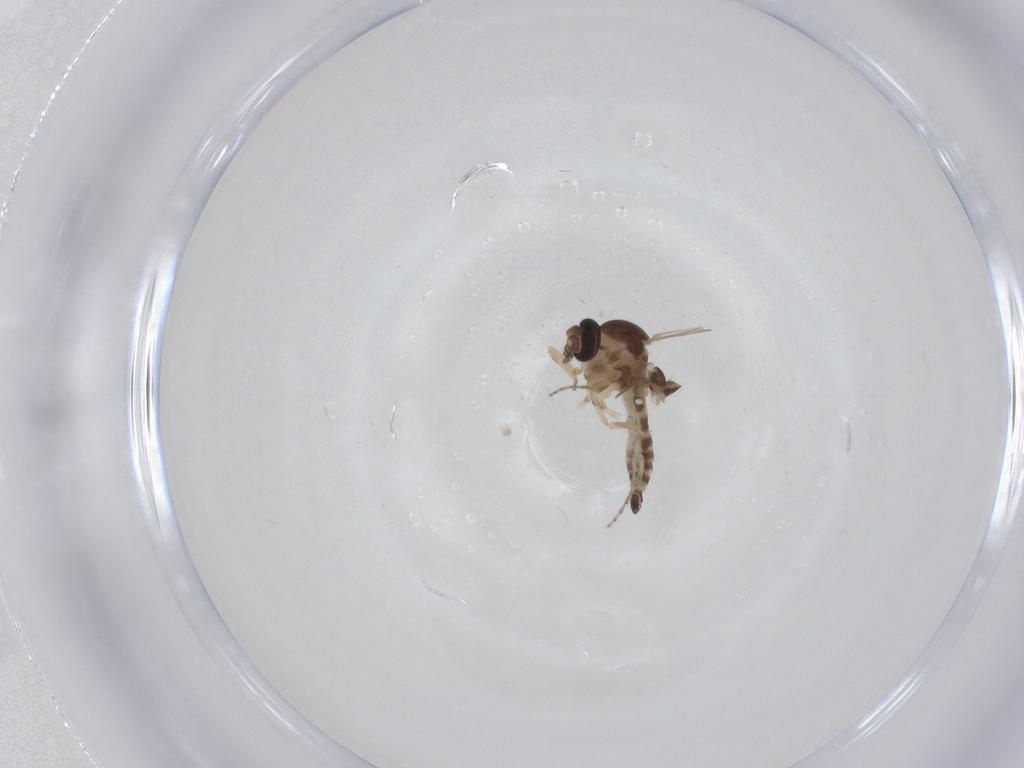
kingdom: Animalia
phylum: Arthropoda
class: Insecta
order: Diptera
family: Ceratopogonidae
